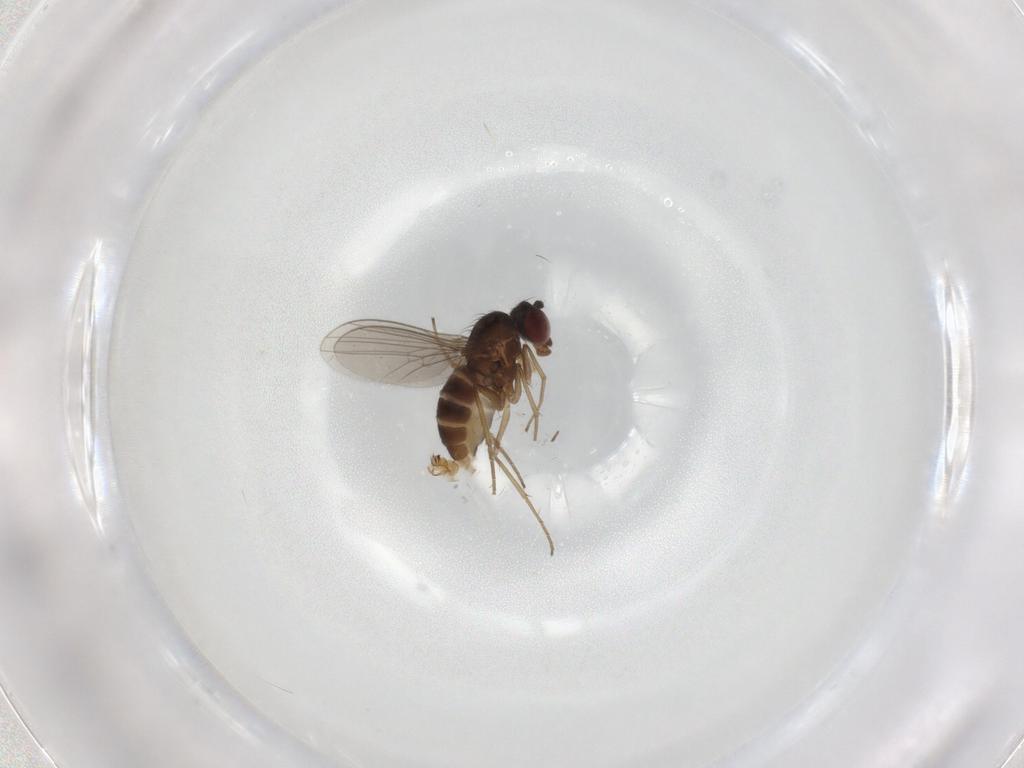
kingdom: Animalia
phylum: Arthropoda
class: Insecta
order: Diptera
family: Dolichopodidae
